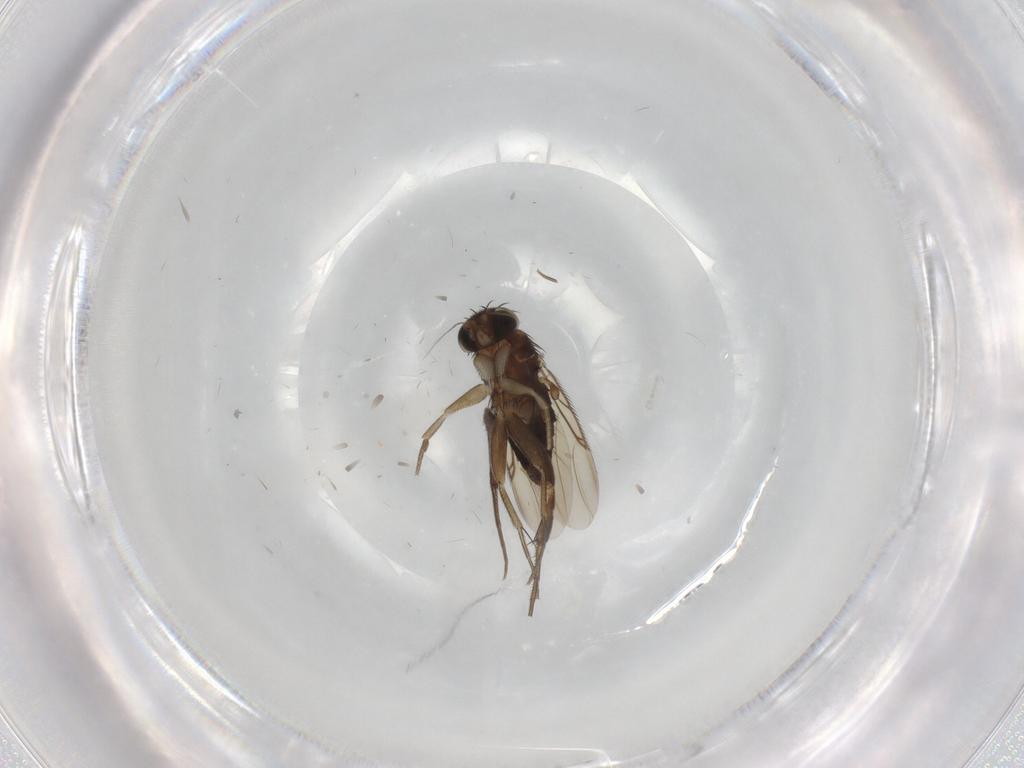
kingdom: Animalia
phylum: Arthropoda
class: Insecta
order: Diptera
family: Phoridae
